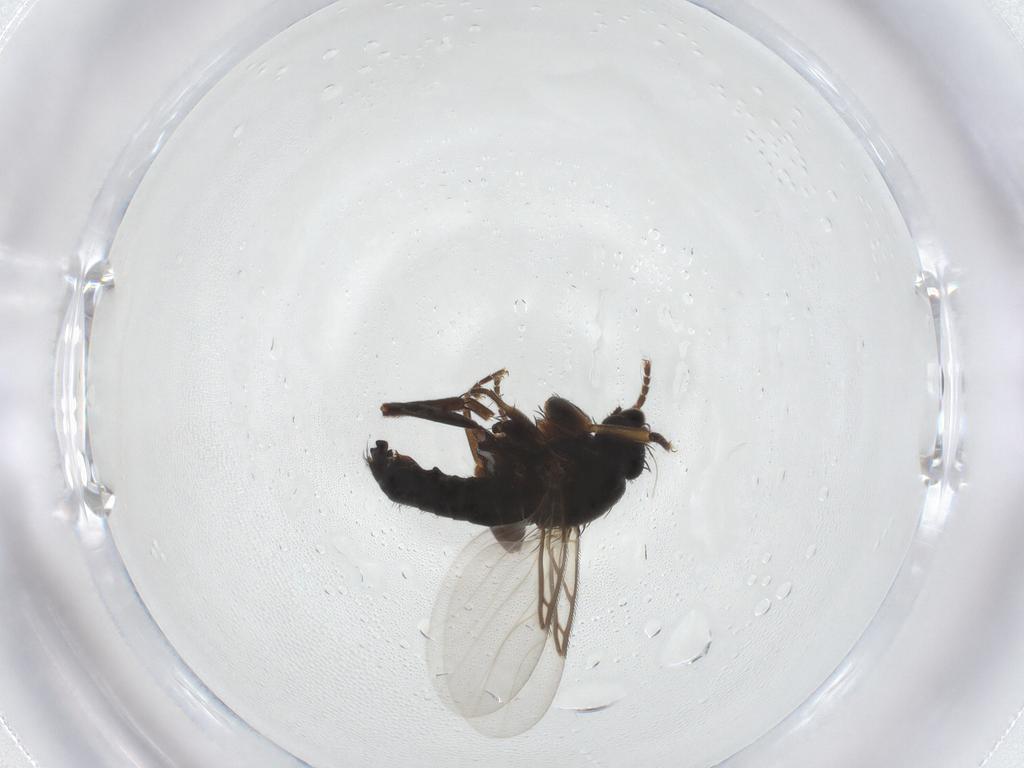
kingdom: Animalia
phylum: Arthropoda
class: Insecta
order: Diptera
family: Phoridae
